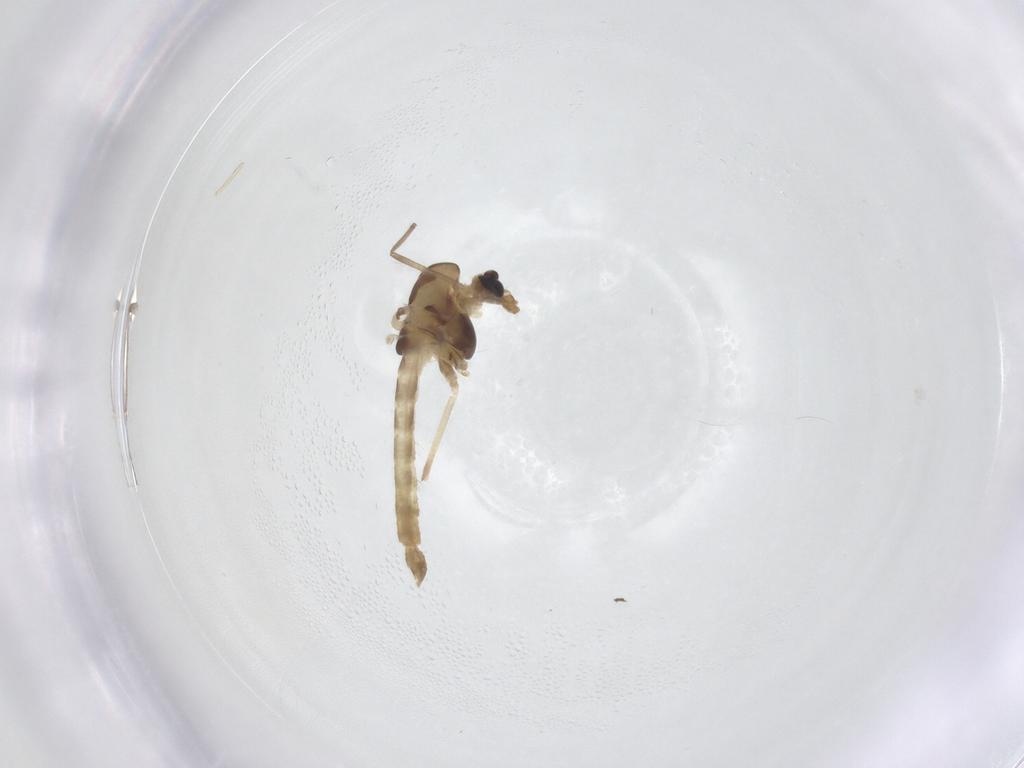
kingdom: Animalia
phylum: Arthropoda
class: Insecta
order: Diptera
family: Chironomidae
